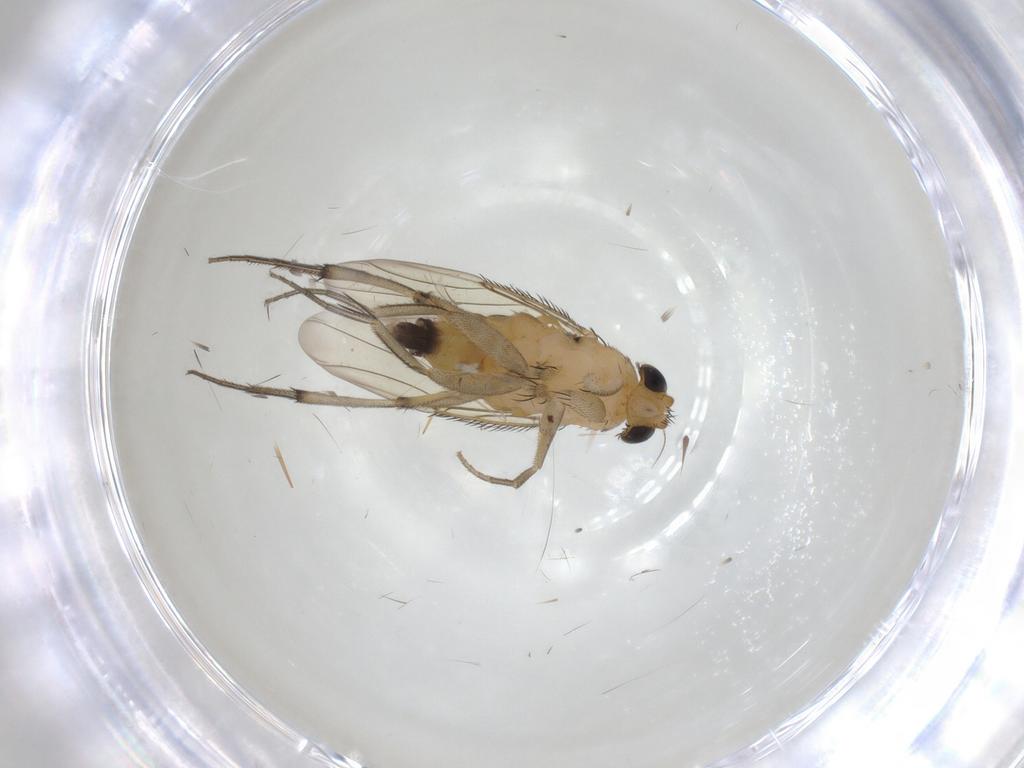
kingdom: Animalia
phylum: Arthropoda
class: Insecta
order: Diptera
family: Phoridae
